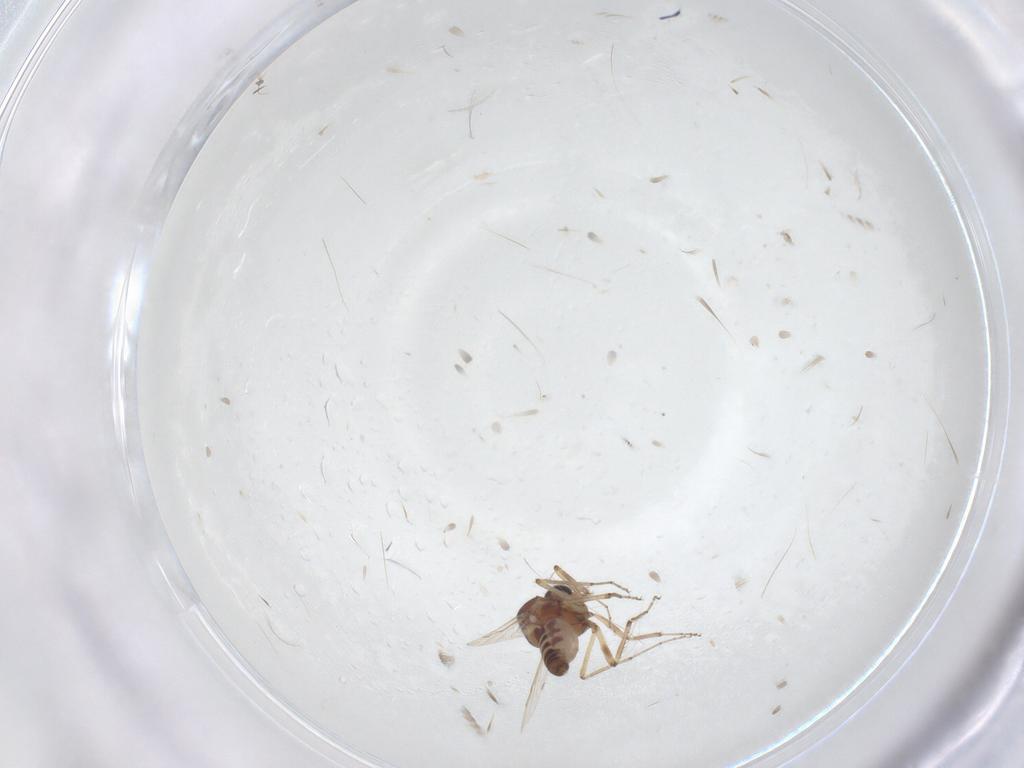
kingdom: Animalia
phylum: Arthropoda
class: Insecta
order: Diptera
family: Ceratopogonidae
